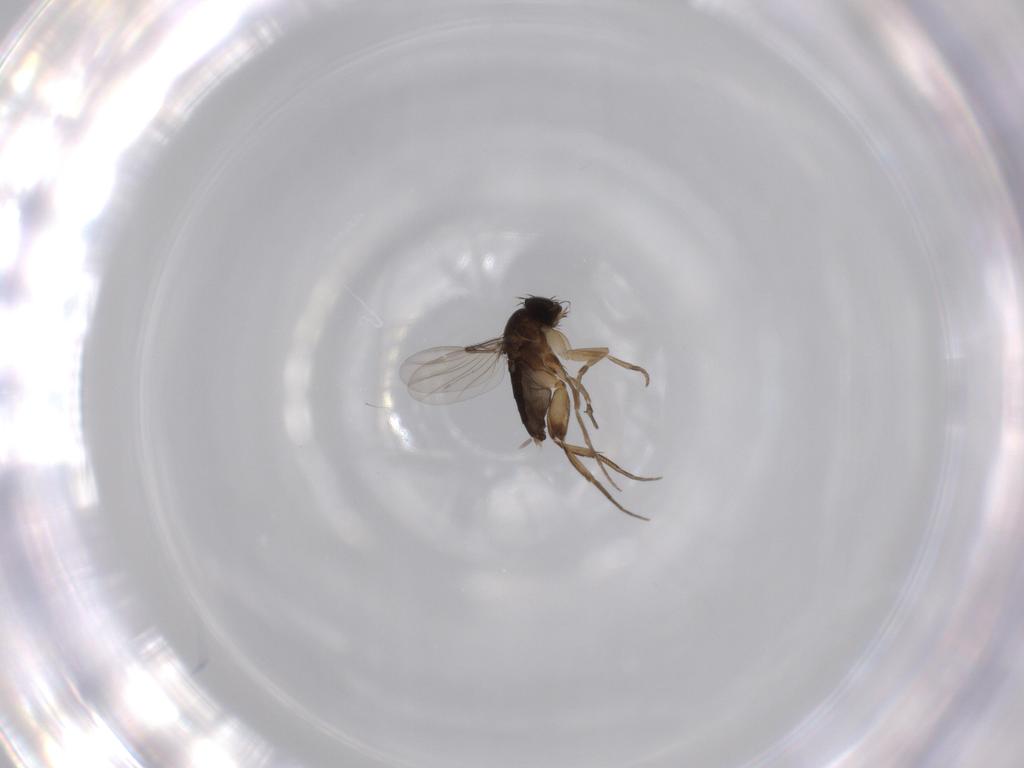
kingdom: Animalia
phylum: Arthropoda
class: Insecta
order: Diptera
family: Phoridae
